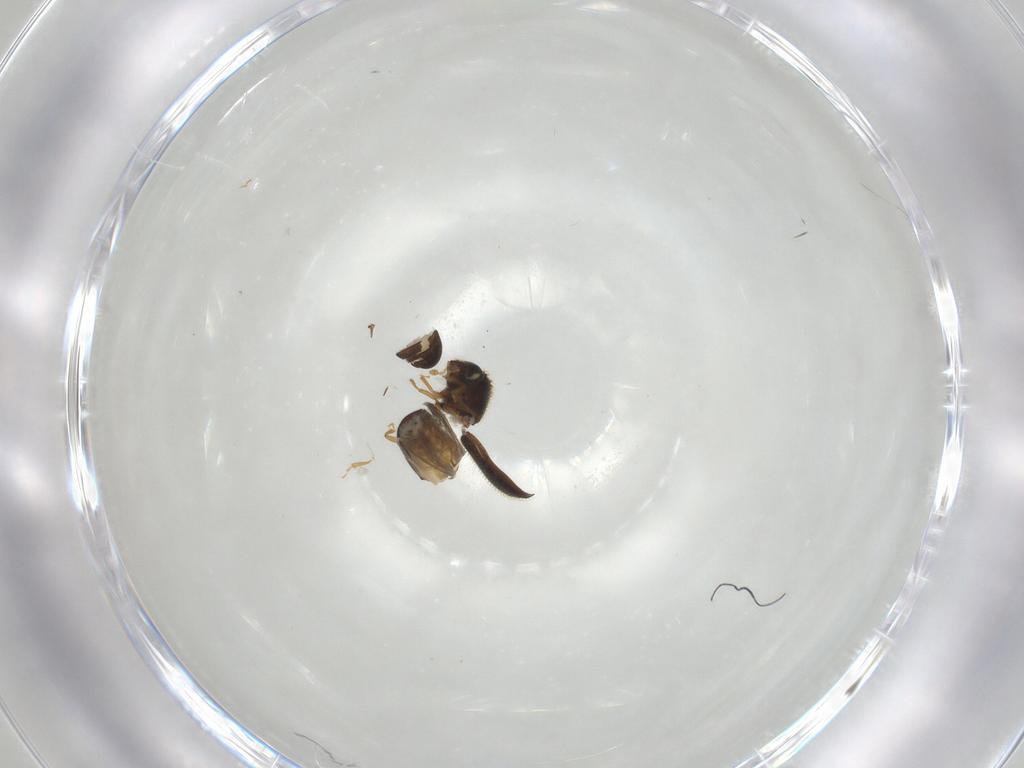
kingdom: Animalia
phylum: Arthropoda
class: Insecta
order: Coleoptera
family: Curculionidae
